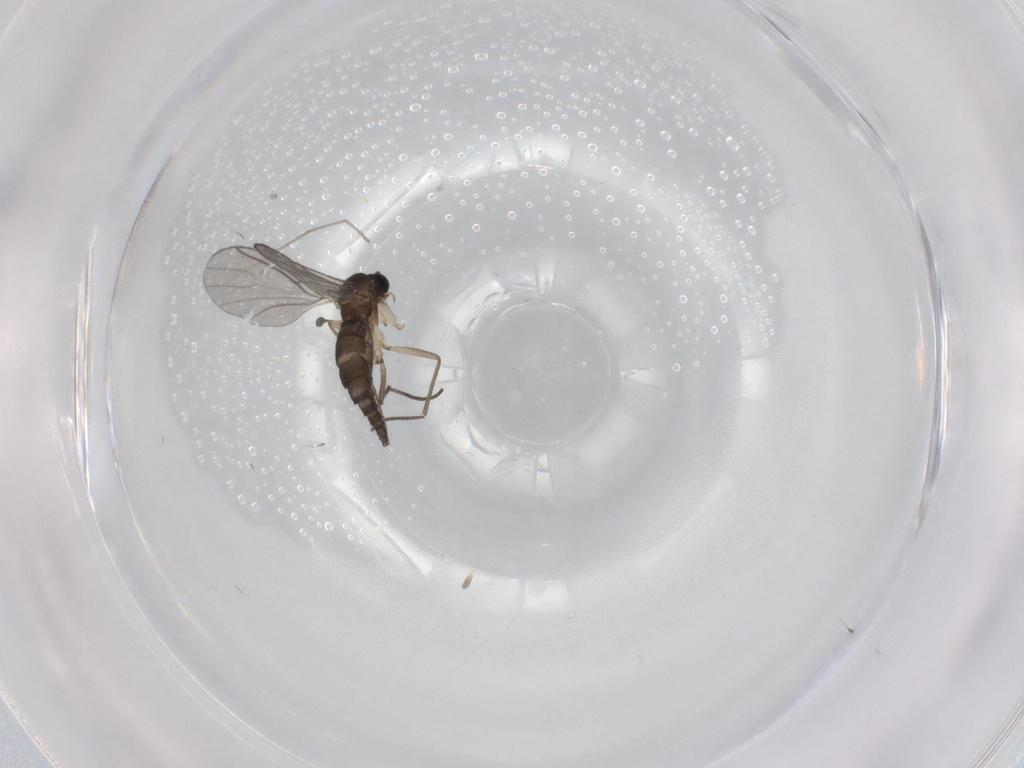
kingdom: Animalia
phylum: Arthropoda
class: Insecta
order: Diptera
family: Sciaridae
